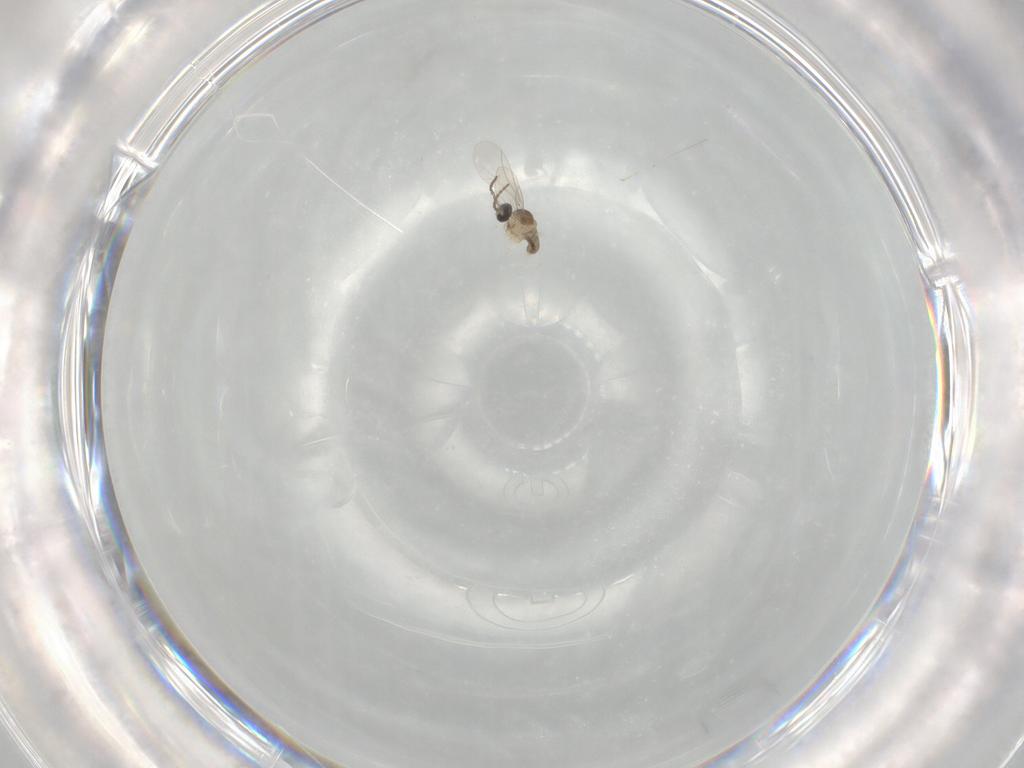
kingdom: Animalia
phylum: Arthropoda
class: Insecta
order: Diptera
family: Cecidomyiidae
